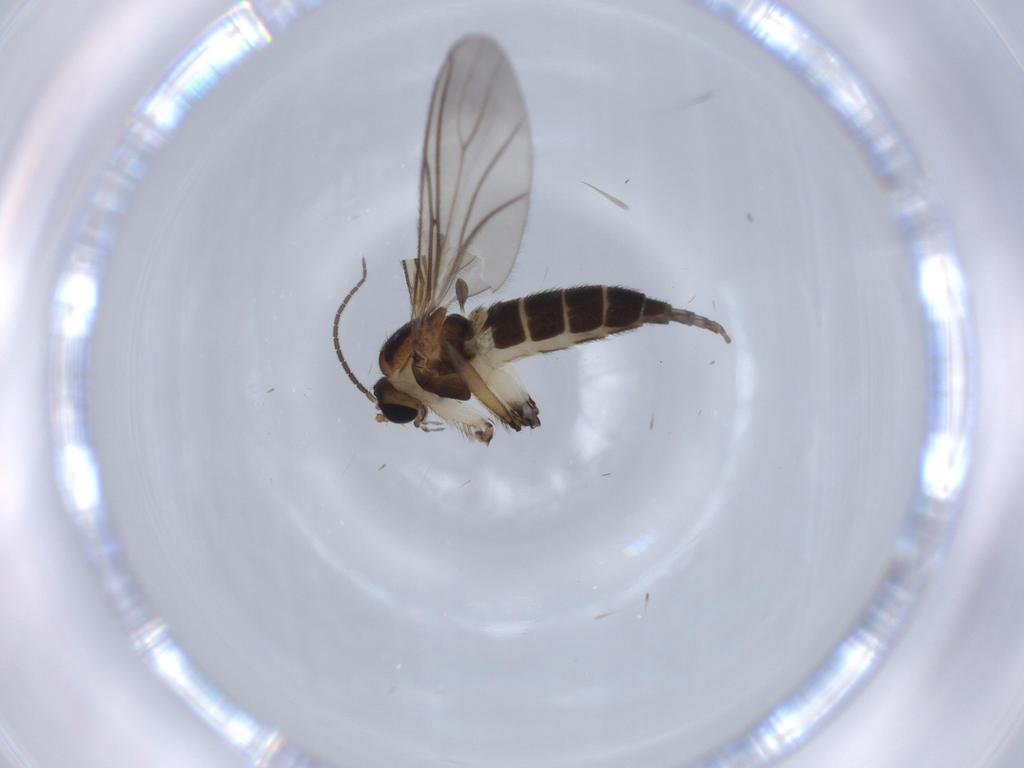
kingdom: Animalia
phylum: Arthropoda
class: Insecta
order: Diptera
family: Sciaridae
